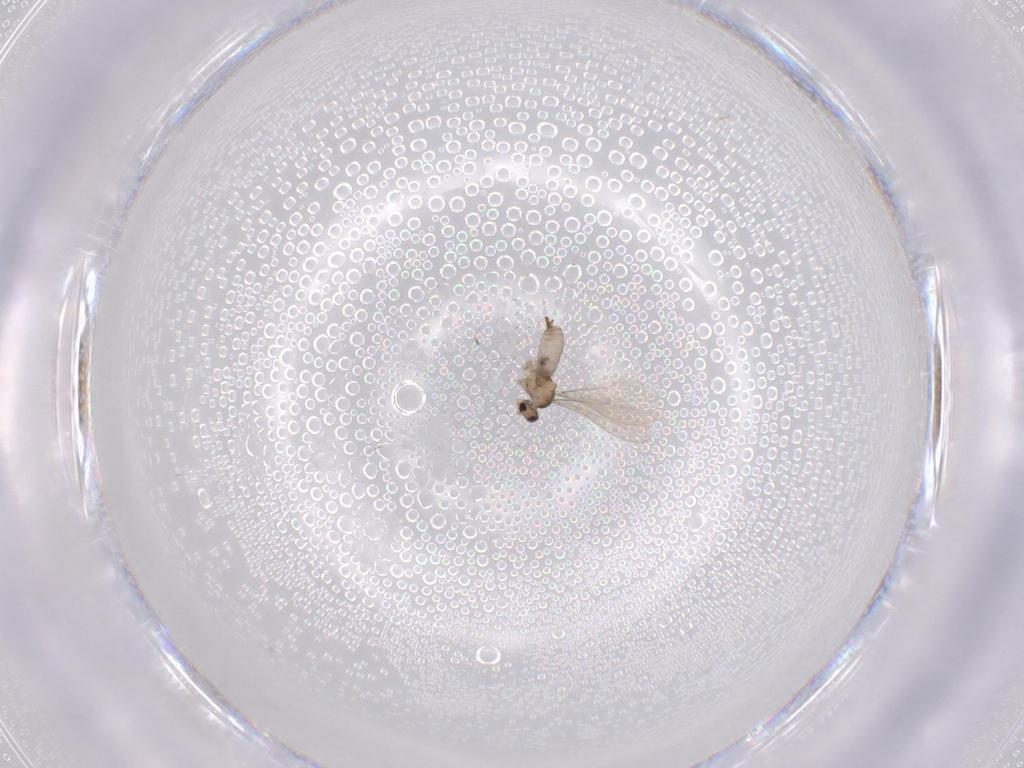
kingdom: Animalia
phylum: Arthropoda
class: Insecta
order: Diptera
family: Cecidomyiidae
